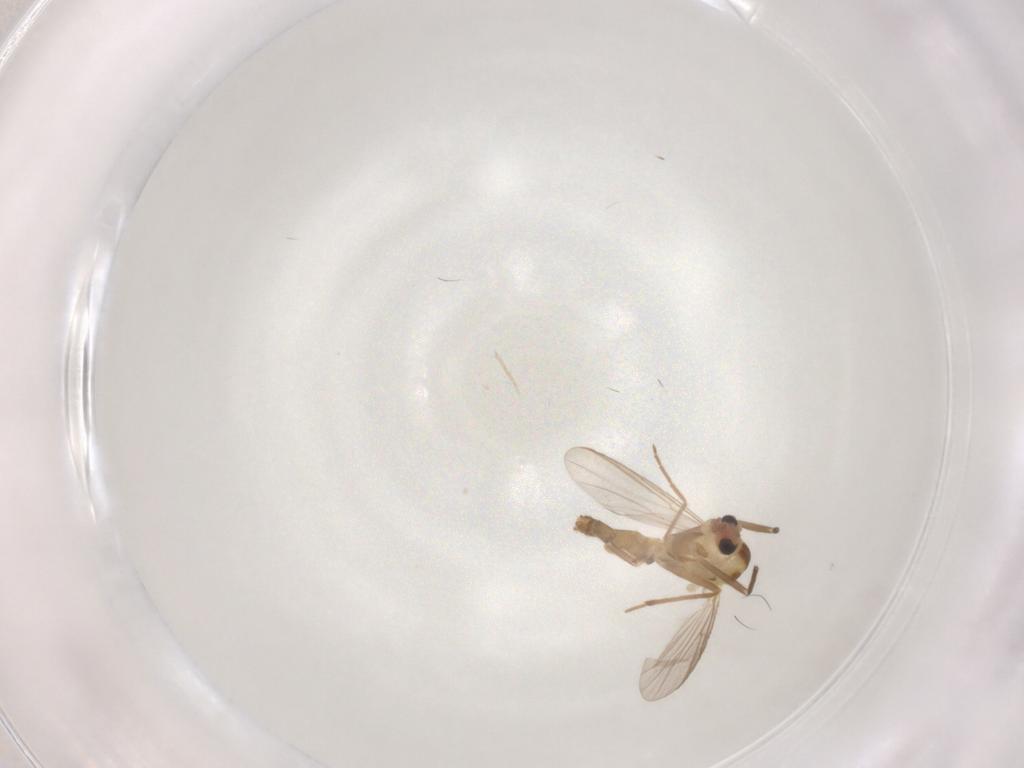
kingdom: Animalia
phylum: Arthropoda
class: Insecta
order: Diptera
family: Chironomidae
